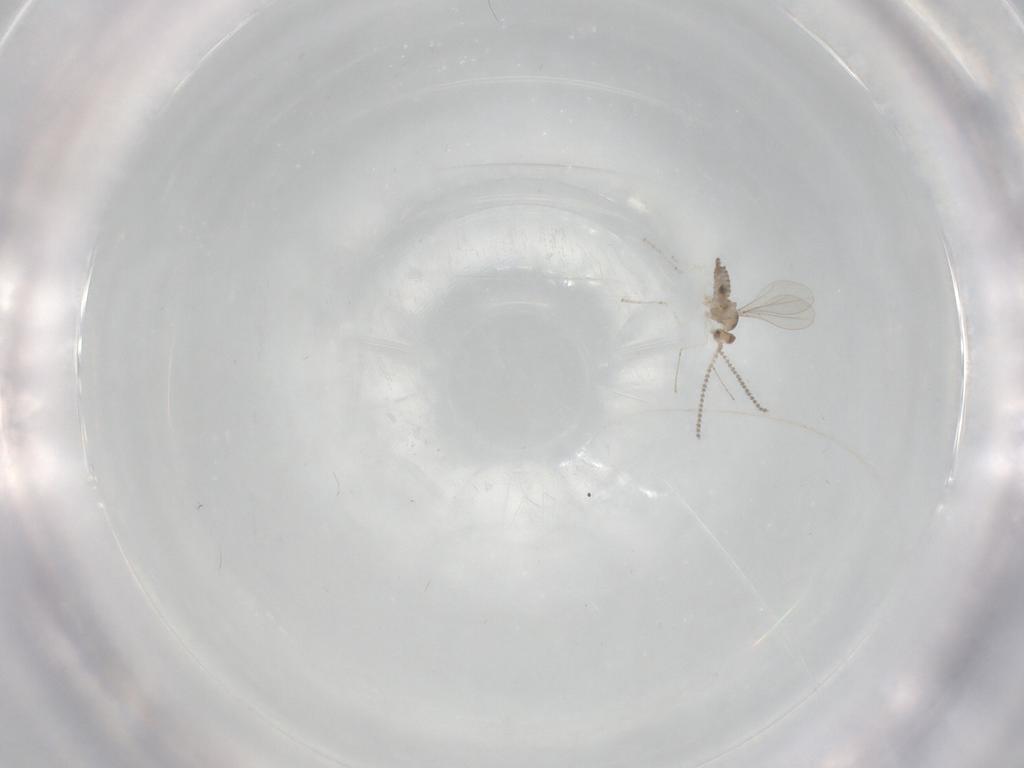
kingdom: Animalia
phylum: Arthropoda
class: Insecta
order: Diptera
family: Cecidomyiidae
